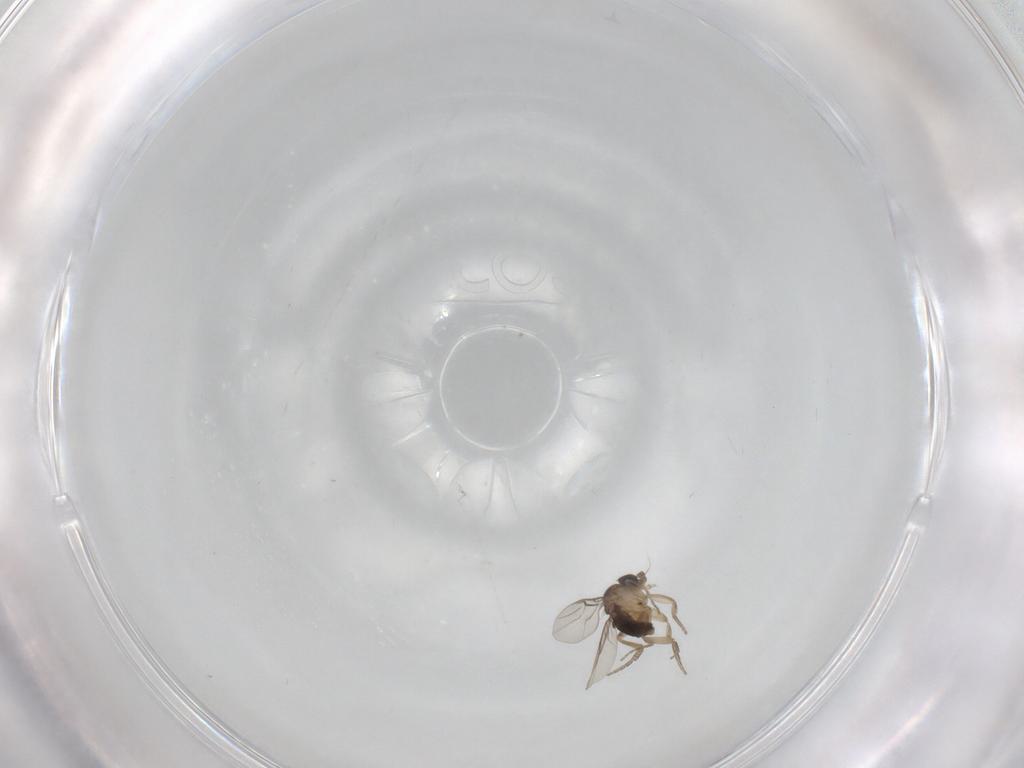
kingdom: Animalia
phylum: Arthropoda
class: Insecta
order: Diptera
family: Phoridae
